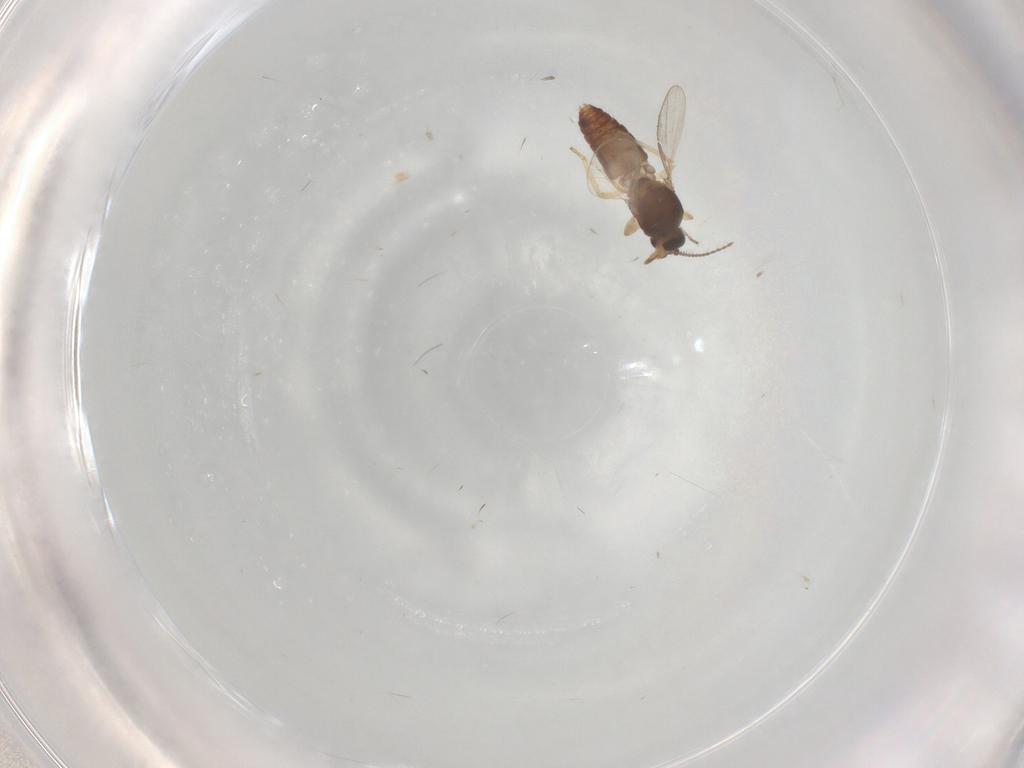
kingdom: Animalia
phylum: Arthropoda
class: Insecta
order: Diptera
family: Ceratopogonidae
